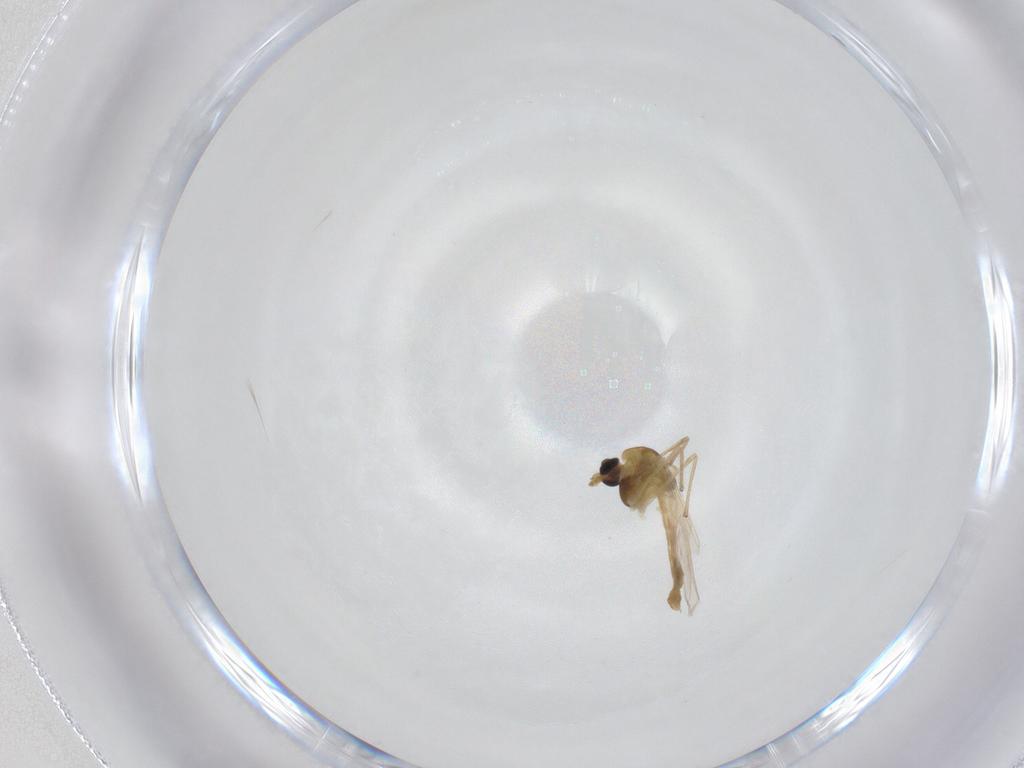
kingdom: Animalia
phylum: Arthropoda
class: Insecta
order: Diptera
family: Chironomidae
